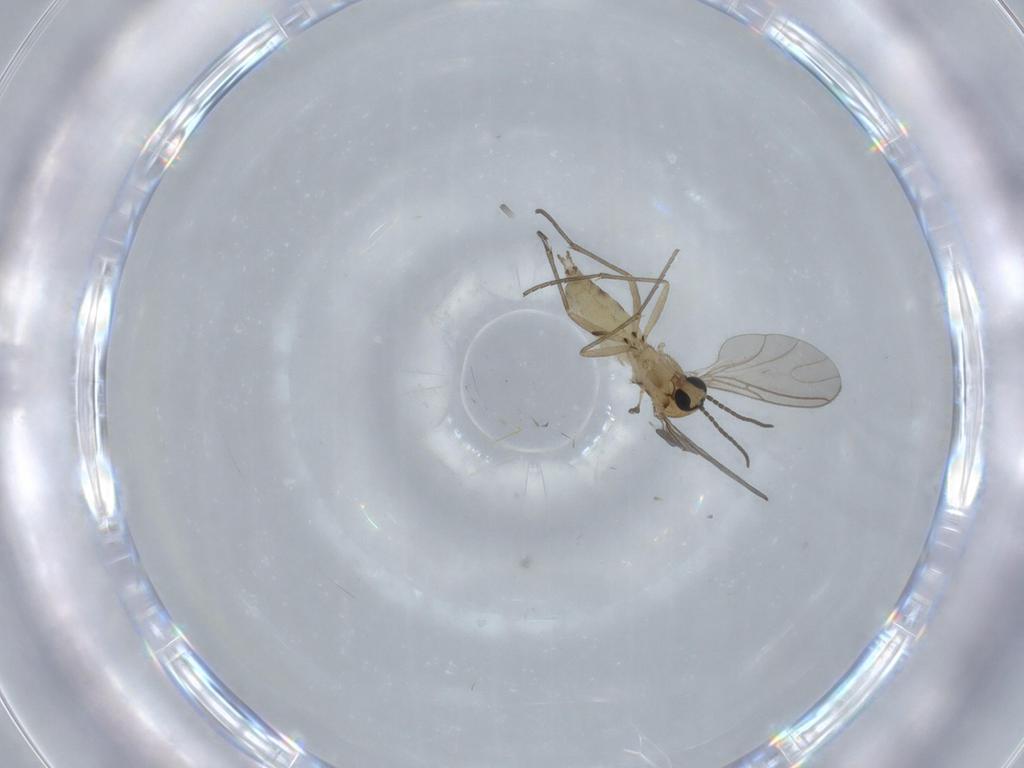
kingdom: Animalia
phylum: Arthropoda
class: Insecta
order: Diptera
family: Sciaridae
